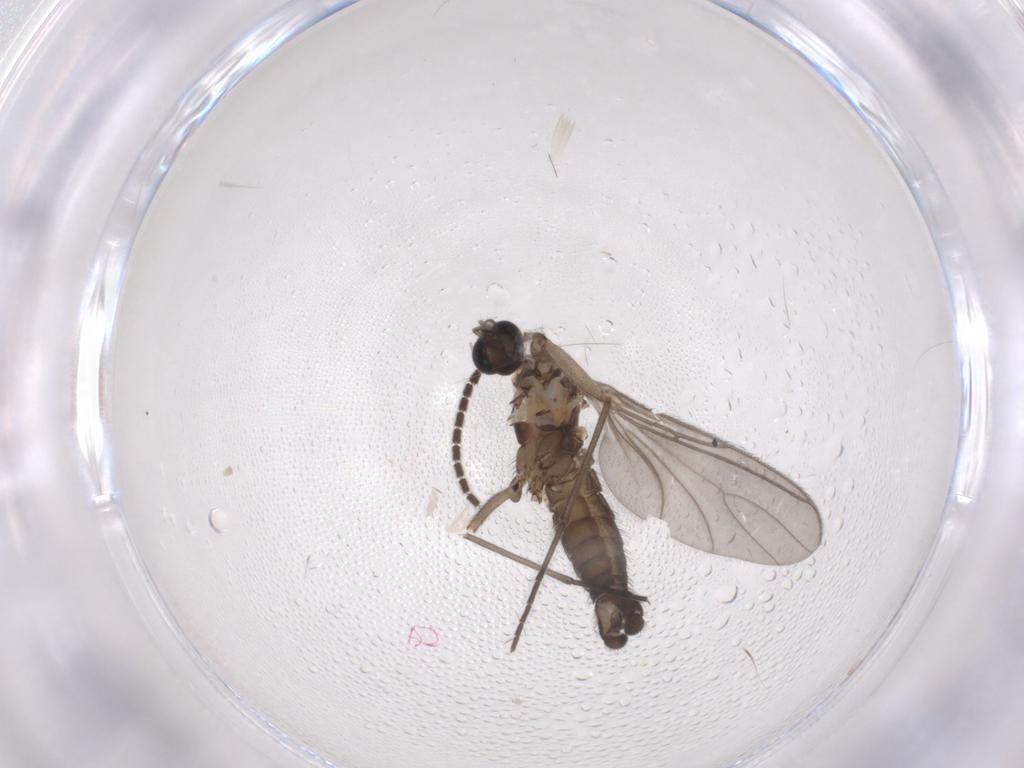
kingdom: Animalia
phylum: Arthropoda
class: Insecta
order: Diptera
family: Sciaridae
